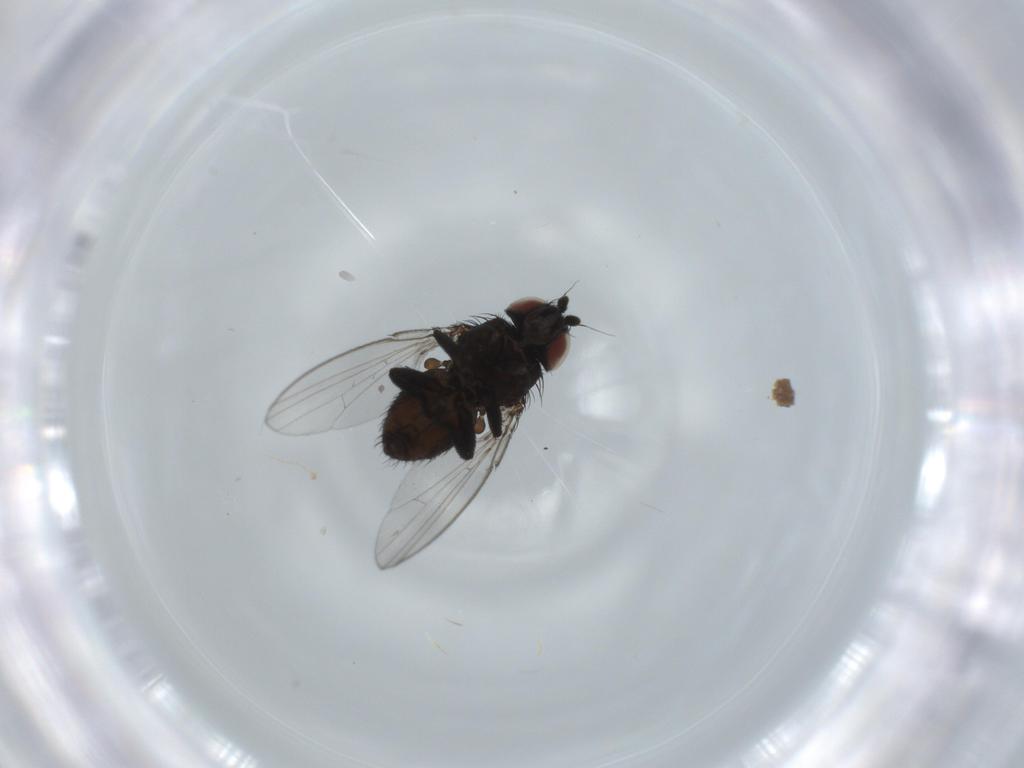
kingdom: Animalia
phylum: Arthropoda
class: Insecta
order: Diptera
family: Milichiidae
